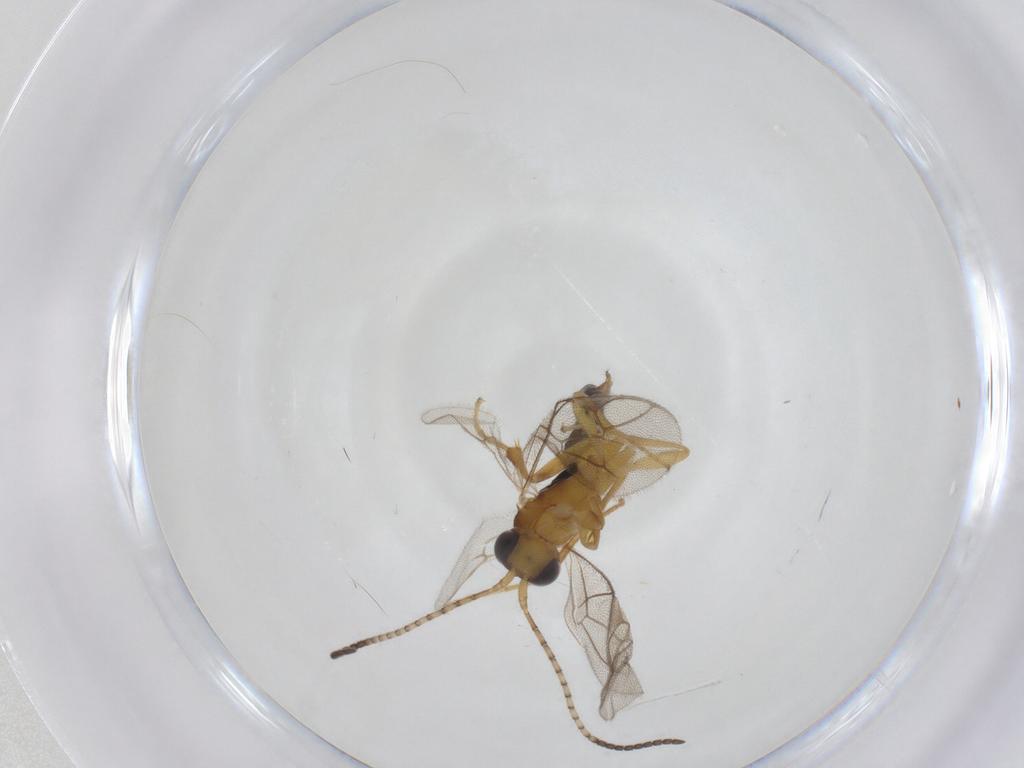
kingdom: Animalia
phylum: Arthropoda
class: Insecta
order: Hymenoptera
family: Ichneumonidae
